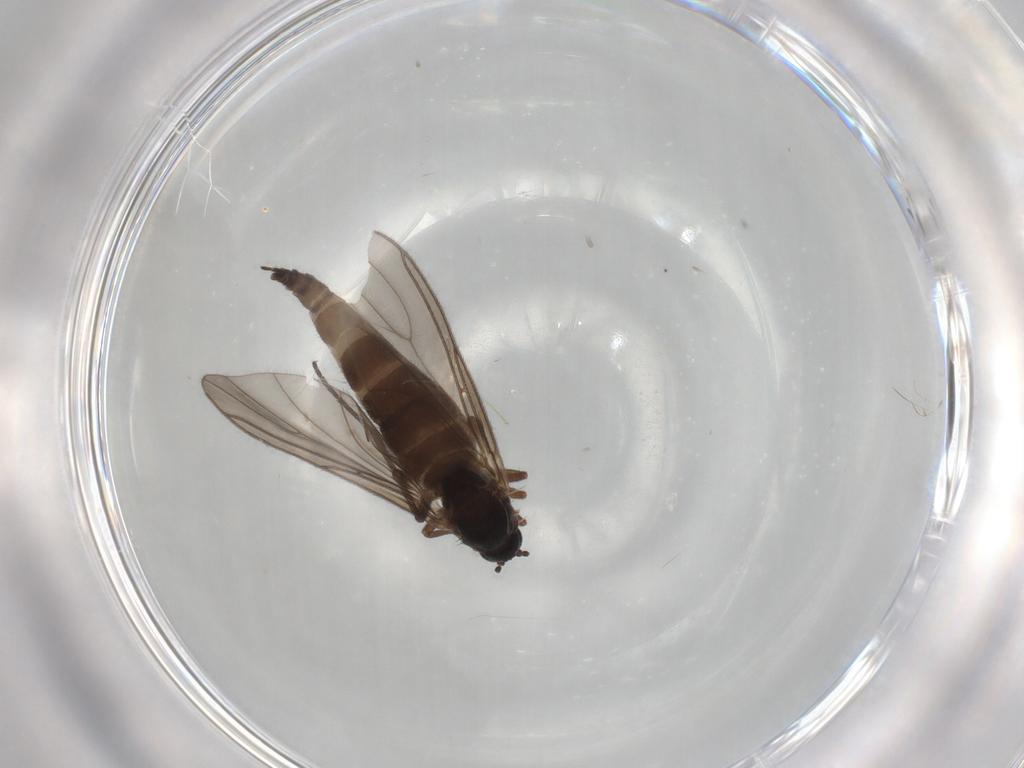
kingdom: Animalia
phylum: Arthropoda
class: Insecta
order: Diptera
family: Sciaridae
